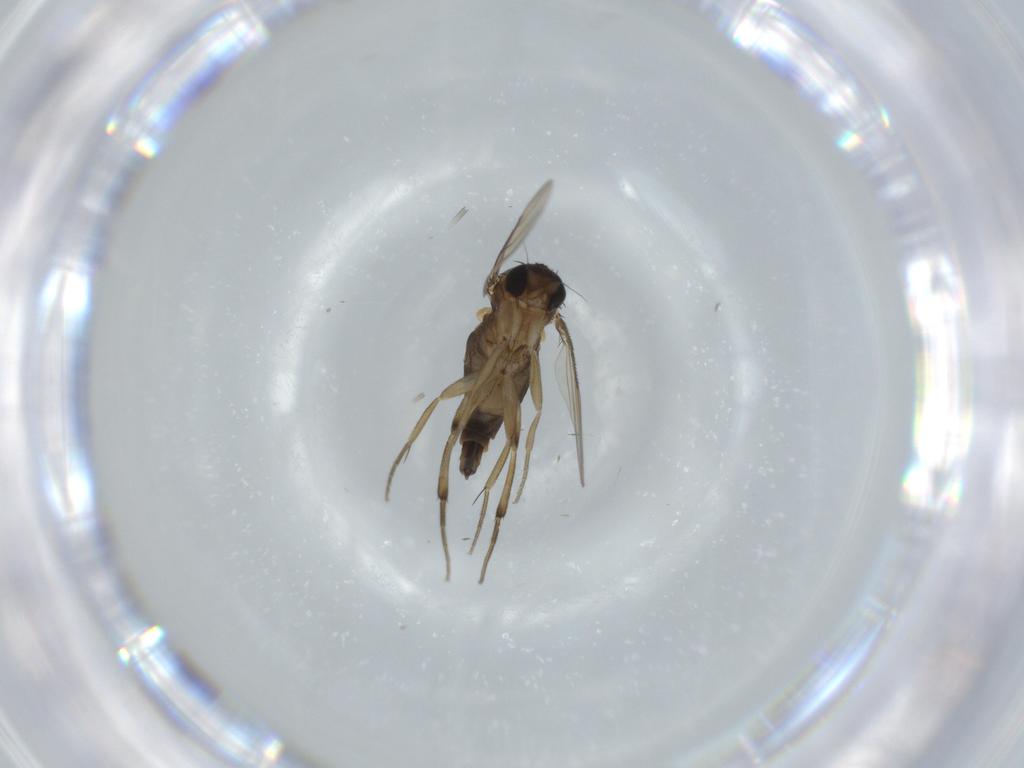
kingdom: Animalia
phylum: Arthropoda
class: Insecta
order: Diptera
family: Phoridae
